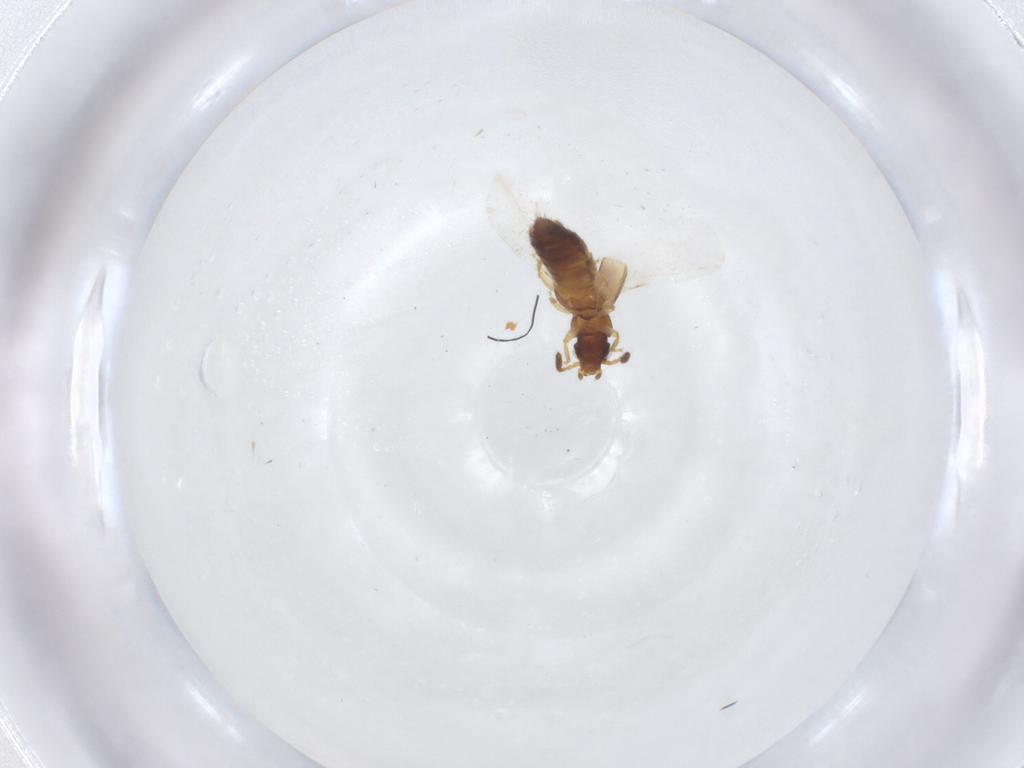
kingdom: Animalia
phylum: Arthropoda
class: Insecta
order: Coleoptera
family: Staphylinidae
